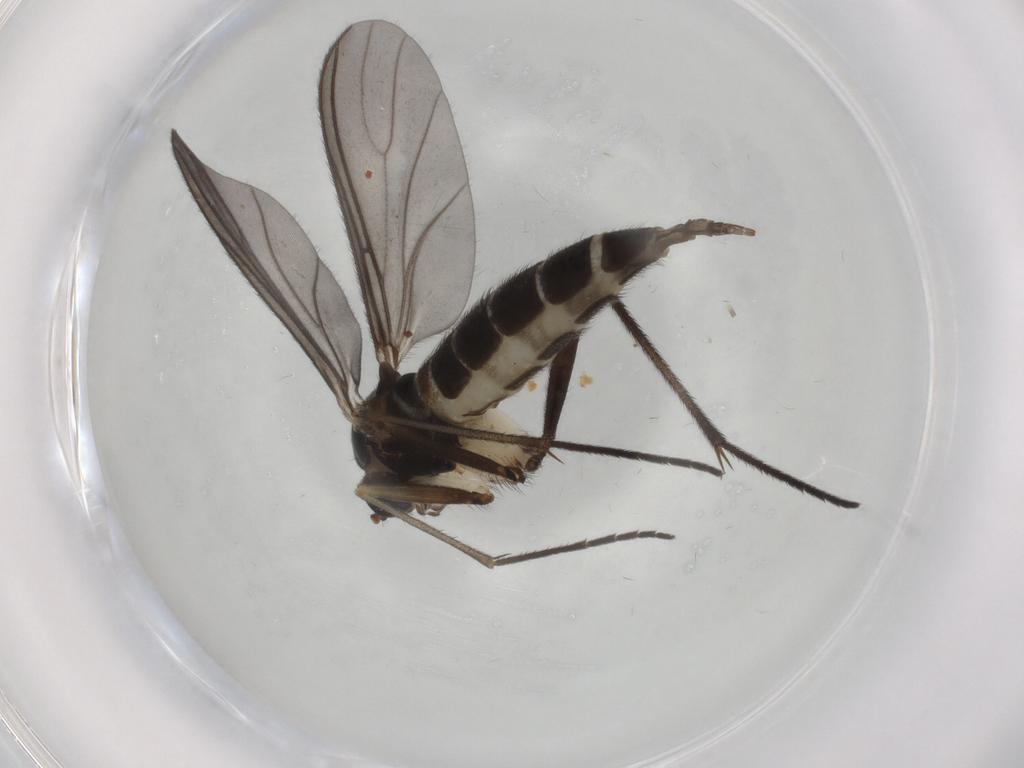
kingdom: Animalia
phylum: Arthropoda
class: Insecta
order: Diptera
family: Sciaridae
